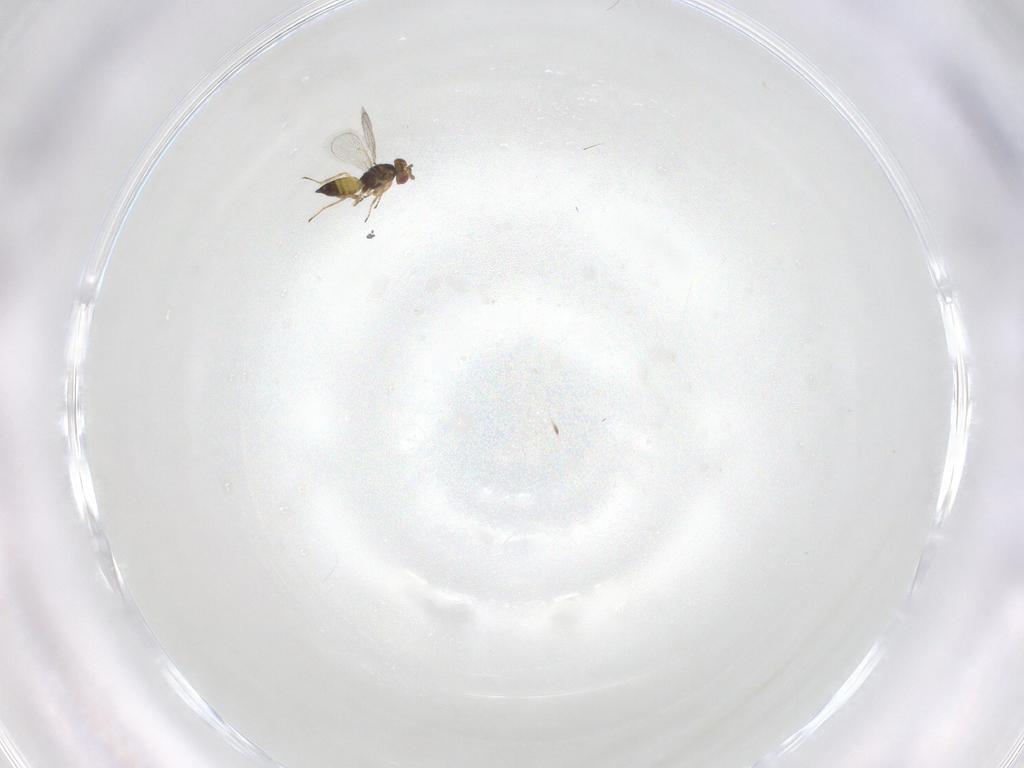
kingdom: Animalia
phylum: Arthropoda
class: Insecta
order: Hymenoptera
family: Eulophidae
